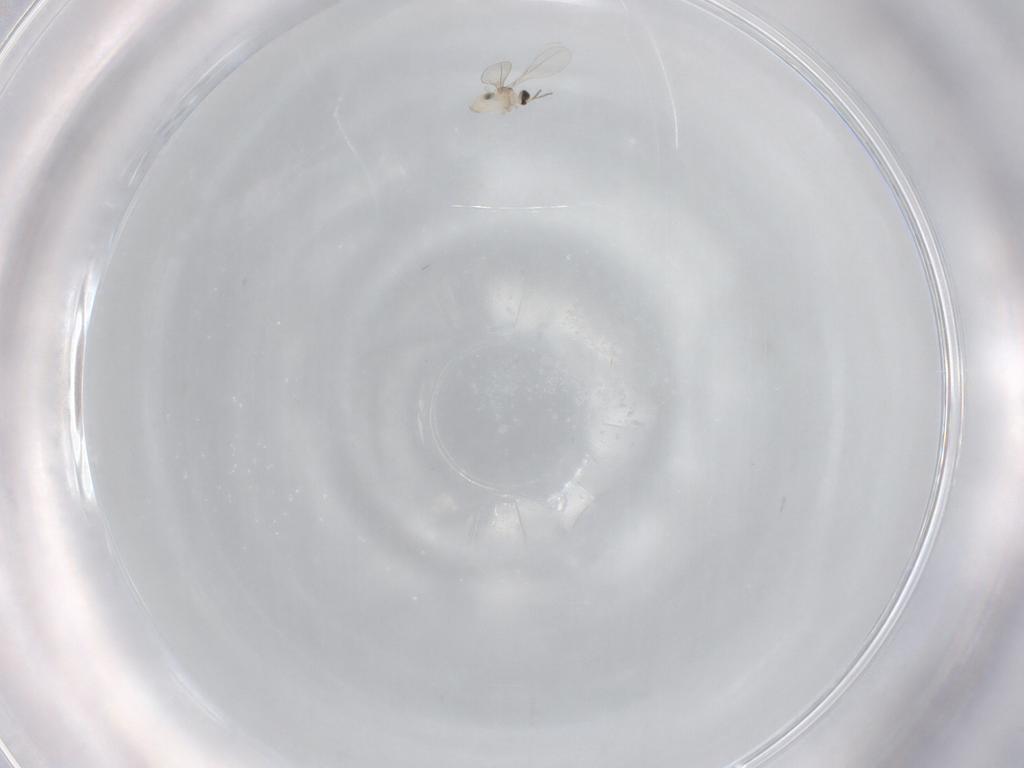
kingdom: Animalia
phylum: Arthropoda
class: Insecta
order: Diptera
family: Cecidomyiidae
